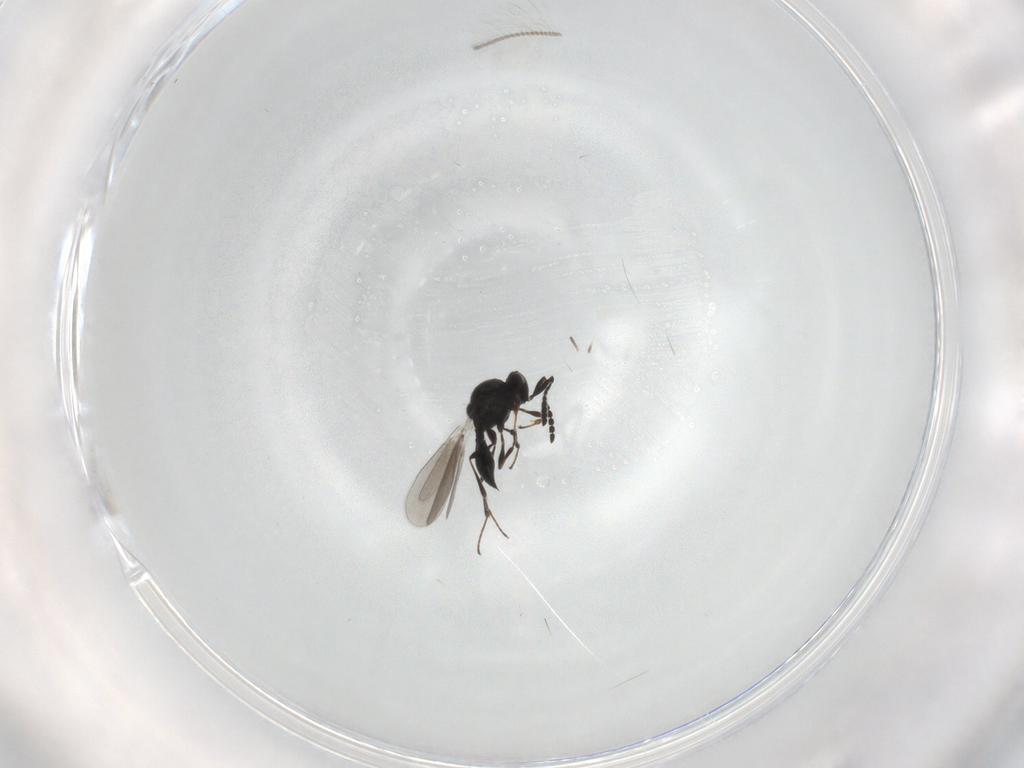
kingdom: Animalia
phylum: Arthropoda
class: Insecta
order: Hymenoptera
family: Platygastridae
